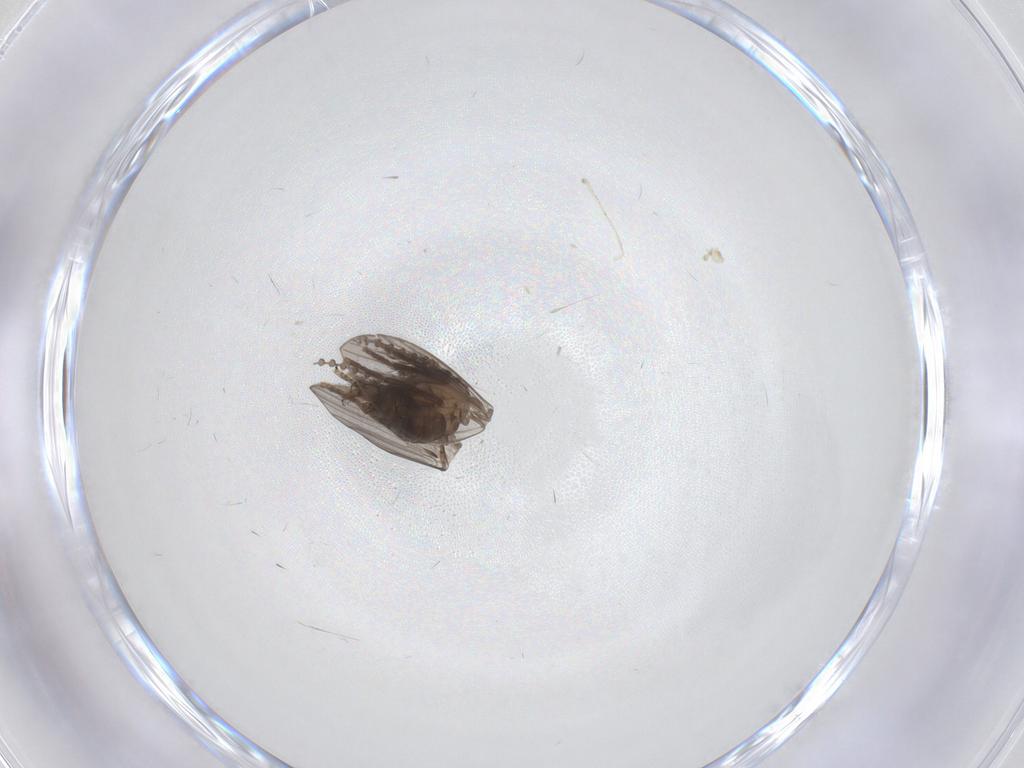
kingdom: Animalia
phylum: Arthropoda
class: Insecta
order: Diptera
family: Psychodidae
